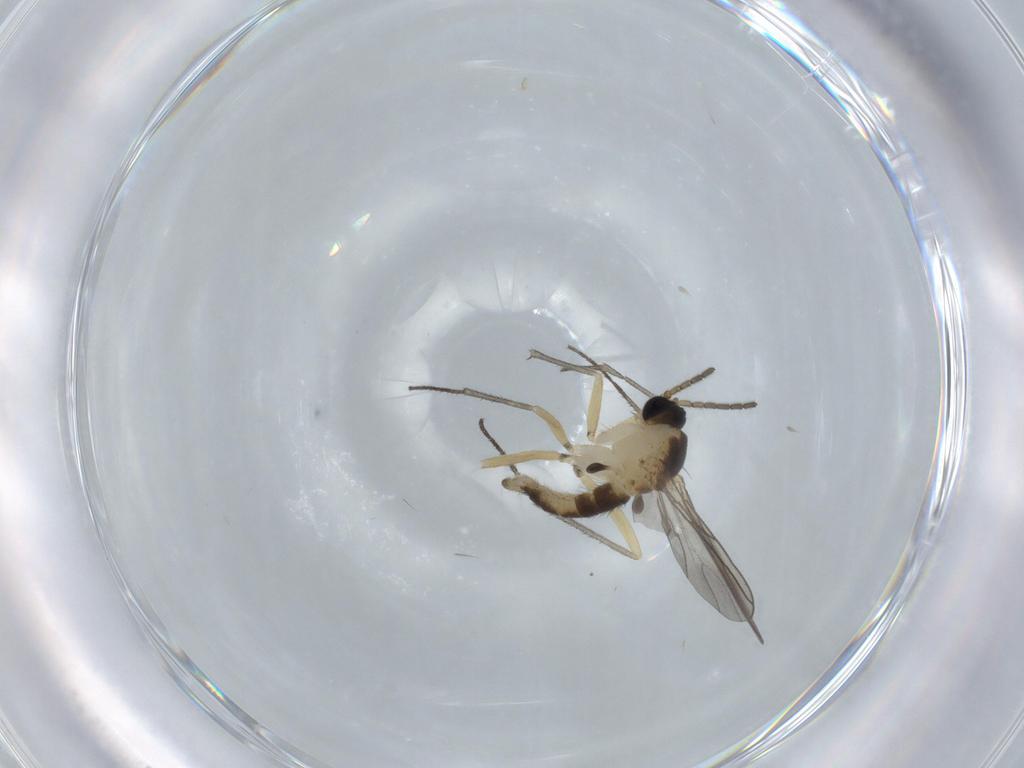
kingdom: Animalia
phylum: Arthropoda
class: Insecta
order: Diptera
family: Sciaridae
